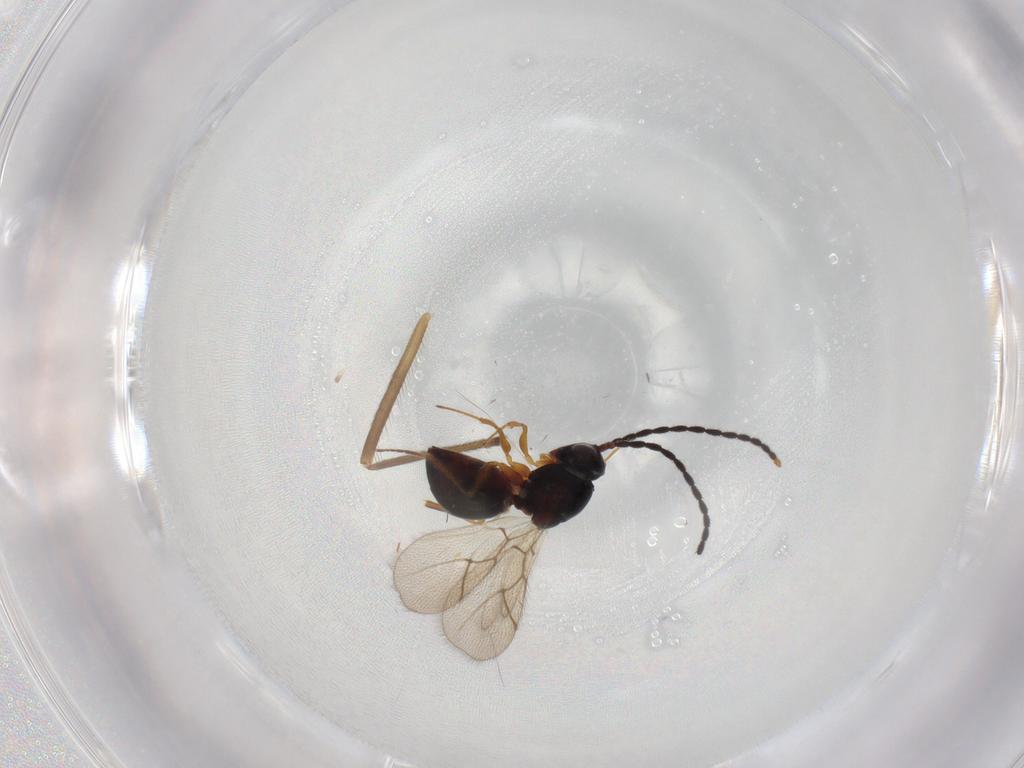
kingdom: Animalia
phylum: Arthropoda
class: Insecta
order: Hymenoptera
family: Figitidae
